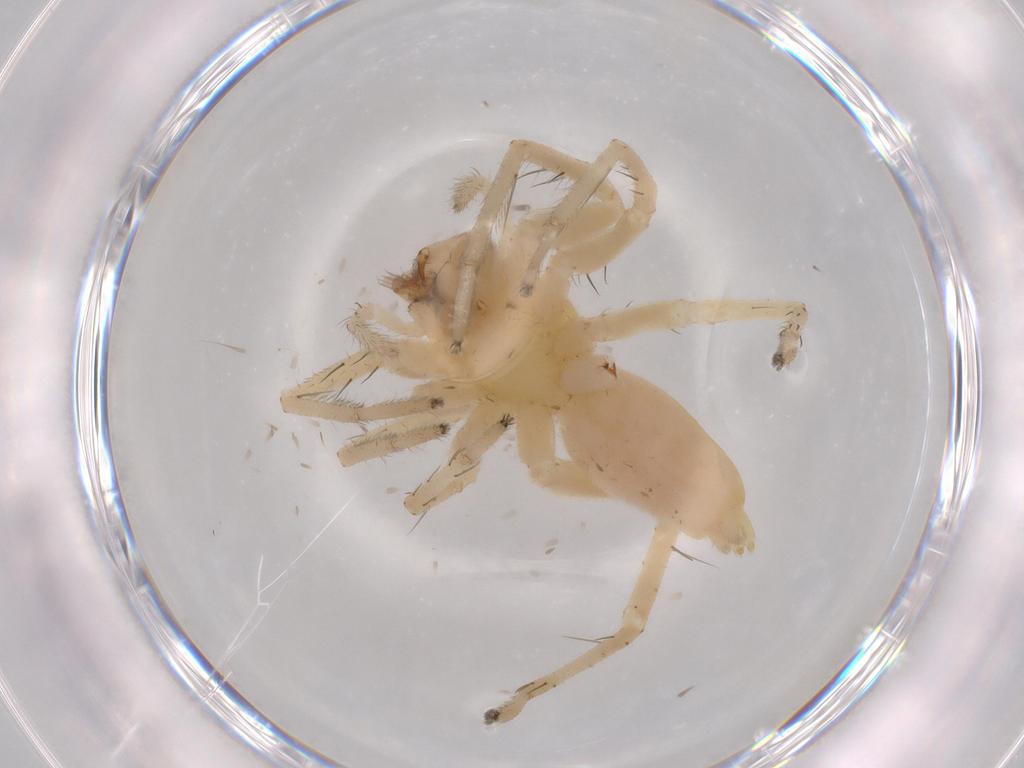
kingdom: Animalia
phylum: Arthropoda
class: Arachnida
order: Araneae
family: Anyphaenidae
